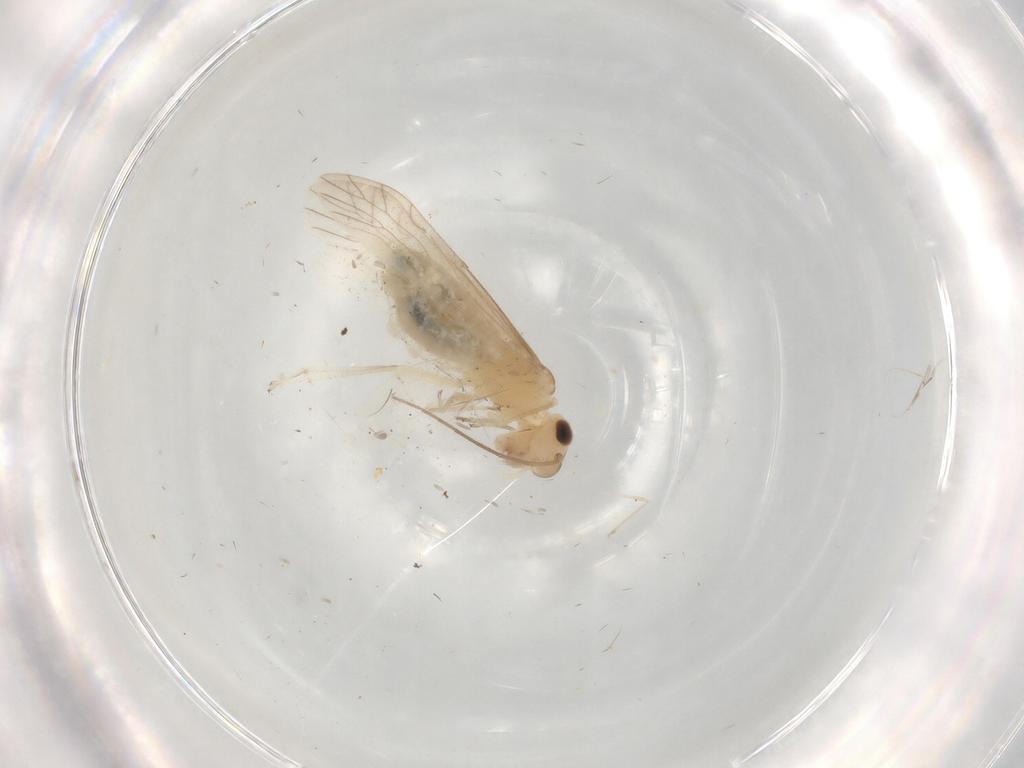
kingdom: Animalia
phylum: Arthropoda
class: Insecta
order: Psocodea
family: Caeciliusidae
